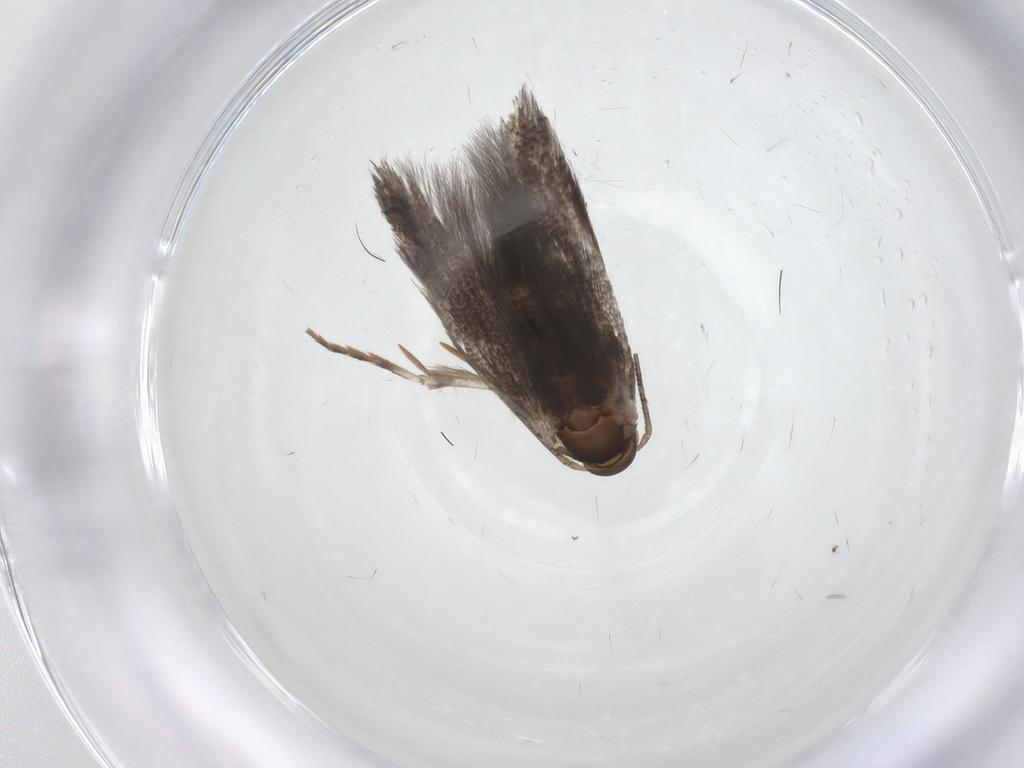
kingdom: Animalia
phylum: Arthropoda
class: Insecta
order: Lepidoptera
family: Elachistidae
